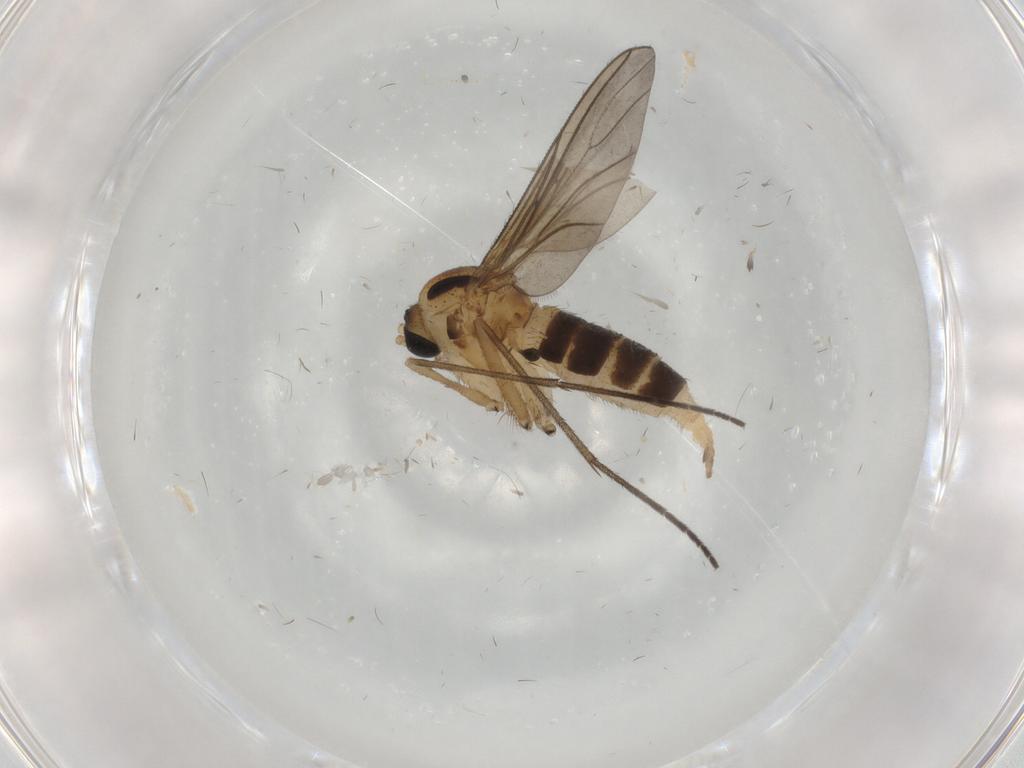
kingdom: Animalia
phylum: Arthropoda
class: Insecta
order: Diptera
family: Sciaridae
